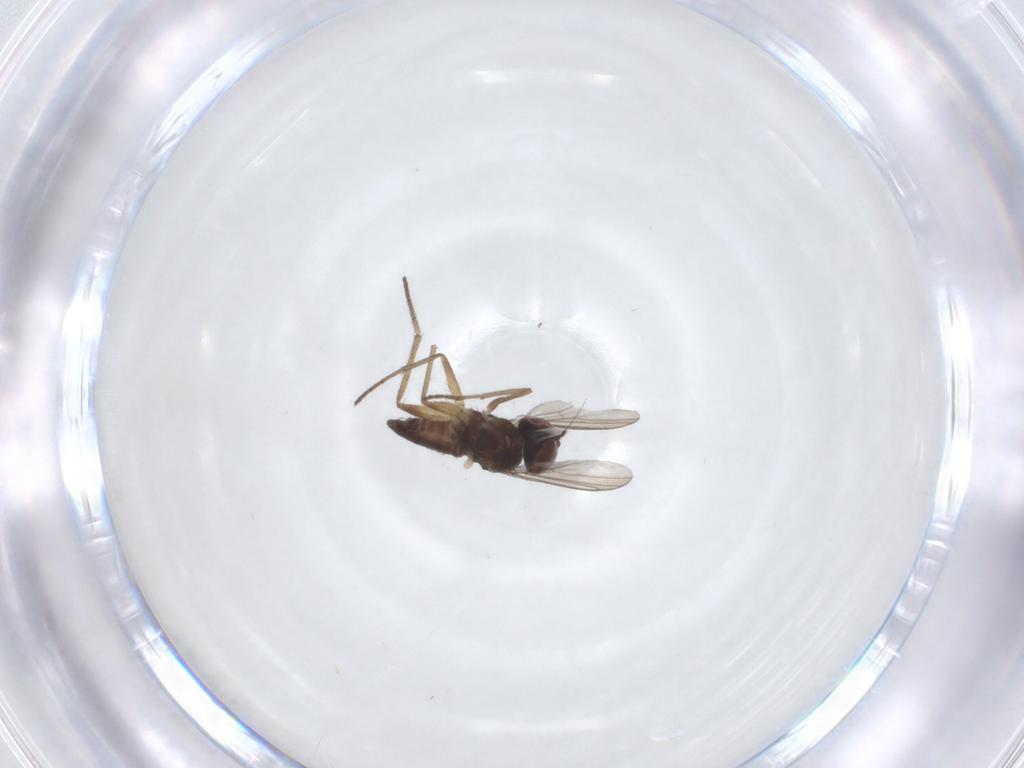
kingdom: Animalia
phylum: Arthropoda
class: Insecta
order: Diptera
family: Dolichopodidae
